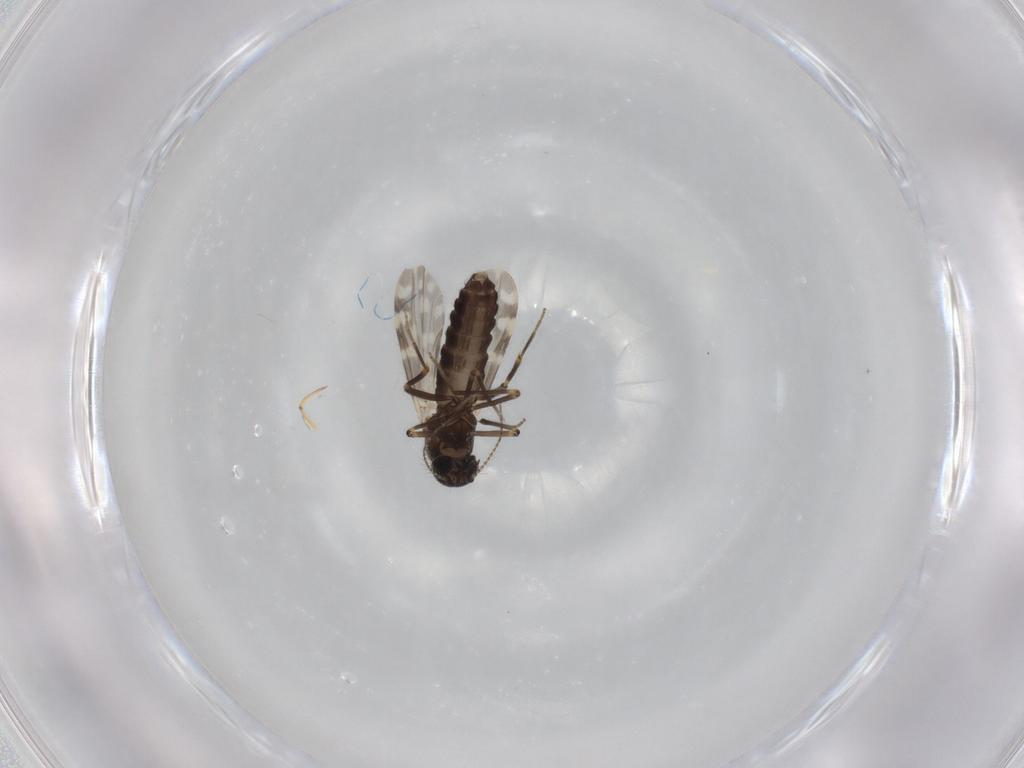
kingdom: Animalia
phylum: Arthropoda
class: Insecta
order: Diptera
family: Ceratopogonidae
